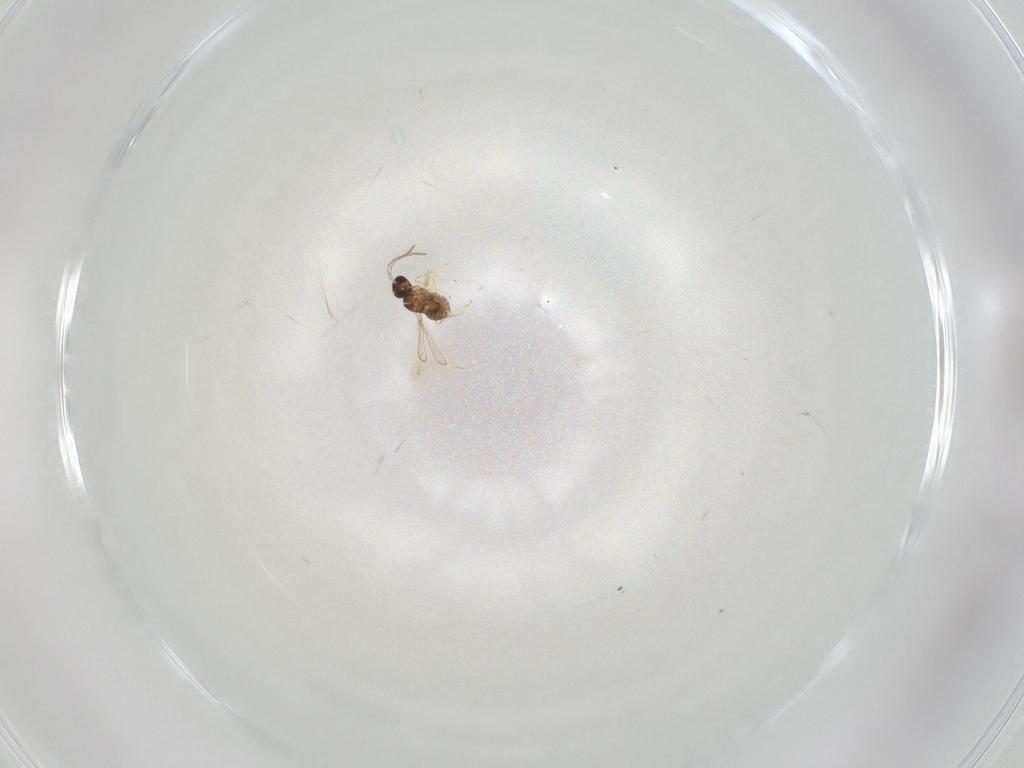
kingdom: Animalia
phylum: Arthropoda
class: Insecta
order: Hymenoptera
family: Mymaridae
